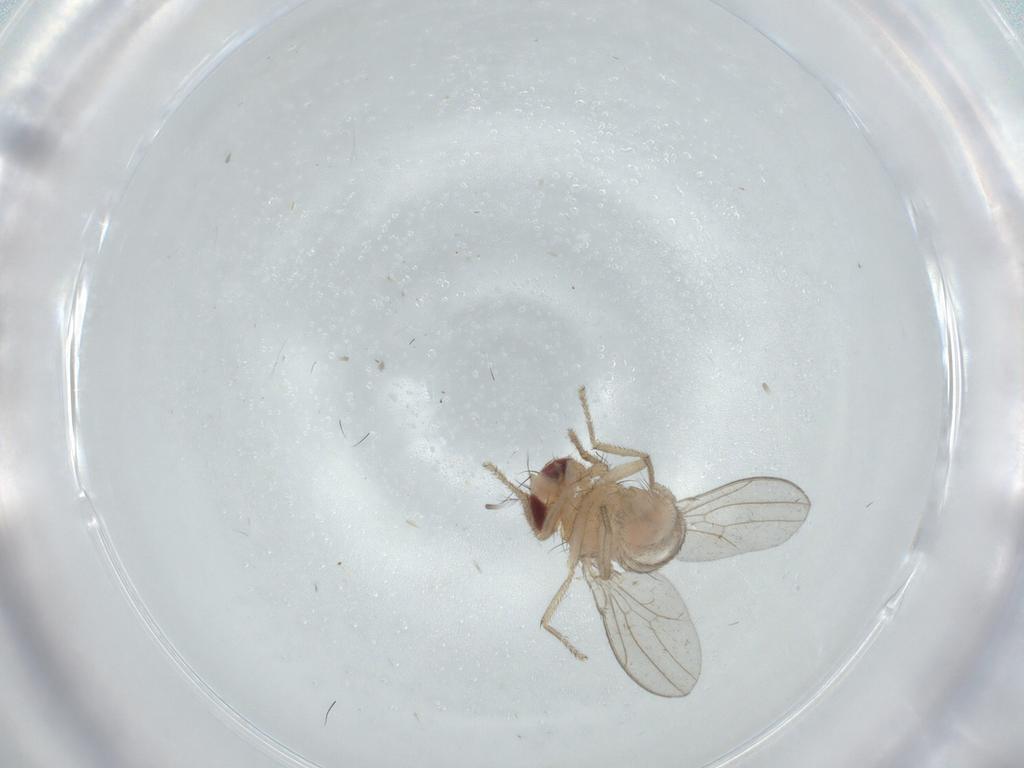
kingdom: Animalia
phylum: Arthropoda
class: Insecta
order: Diptera
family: Drosophilidae
